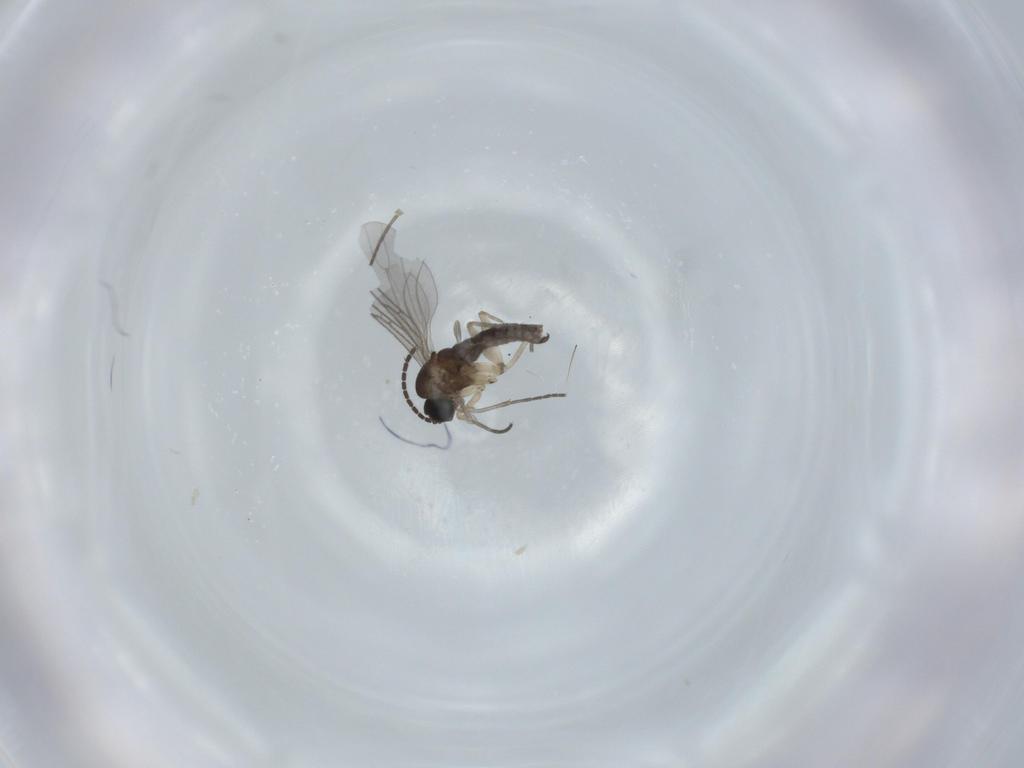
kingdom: Animalia
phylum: Arthropoda
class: Insecta
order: Diptera
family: Sciaridae
